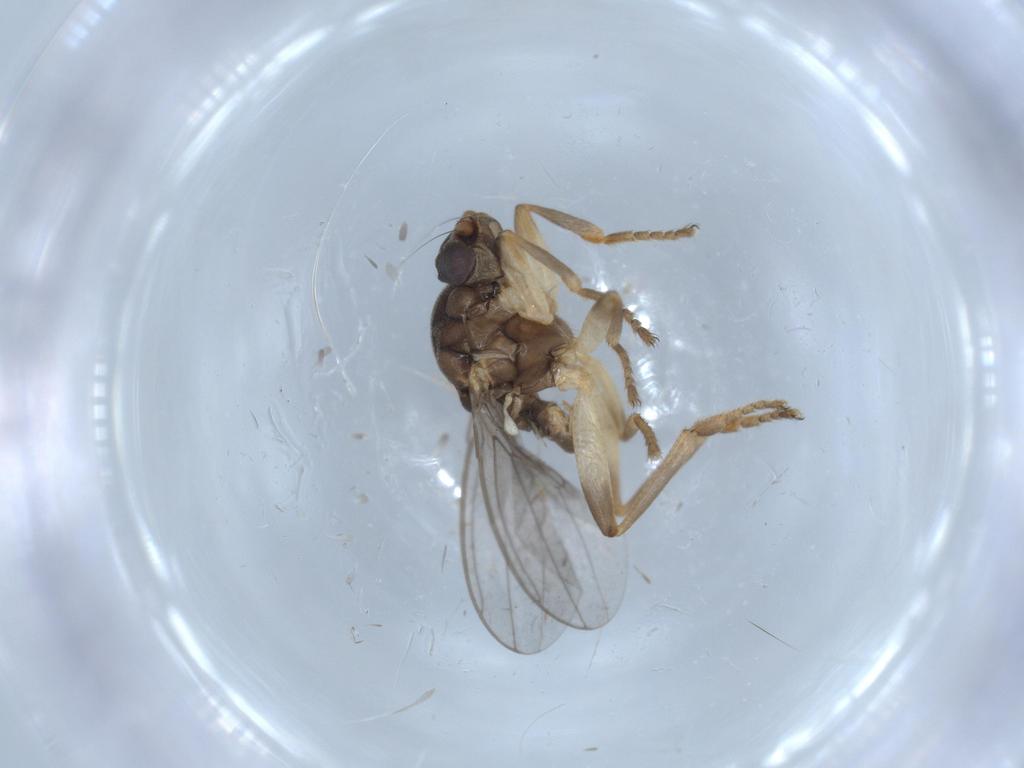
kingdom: Animalia
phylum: Arthropoda
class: Insecta
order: Diptera
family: Sphaeroceridae
